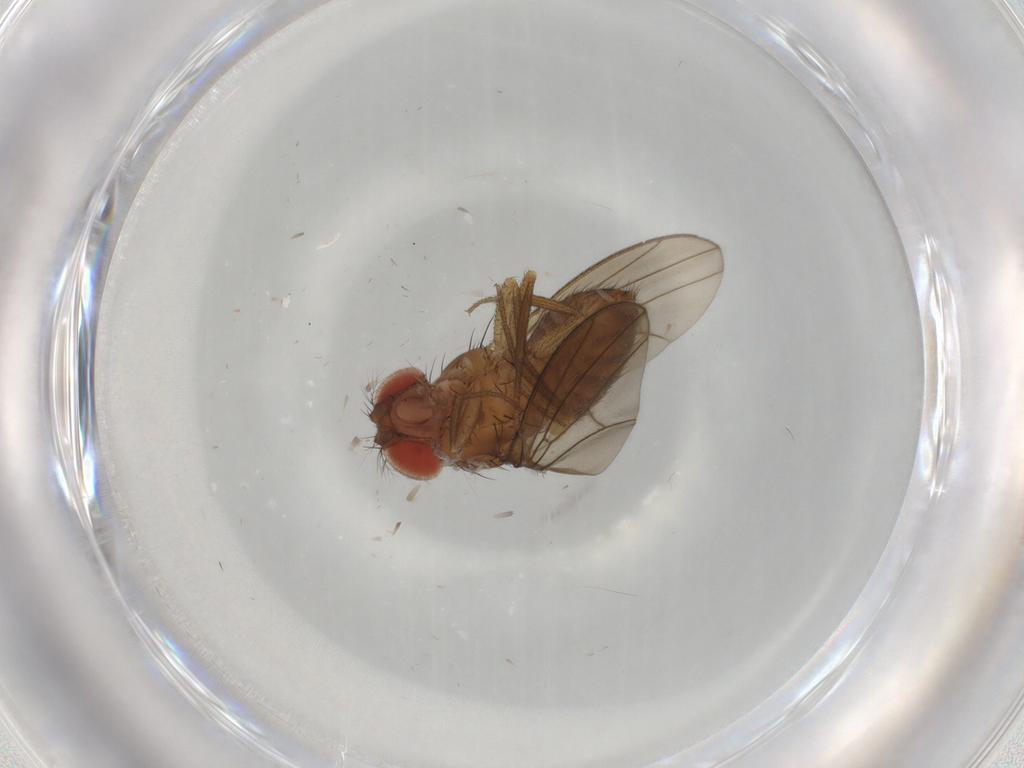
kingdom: Animalia
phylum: Arthropoda
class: Insecta
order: Diptera
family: Drosophilidae
